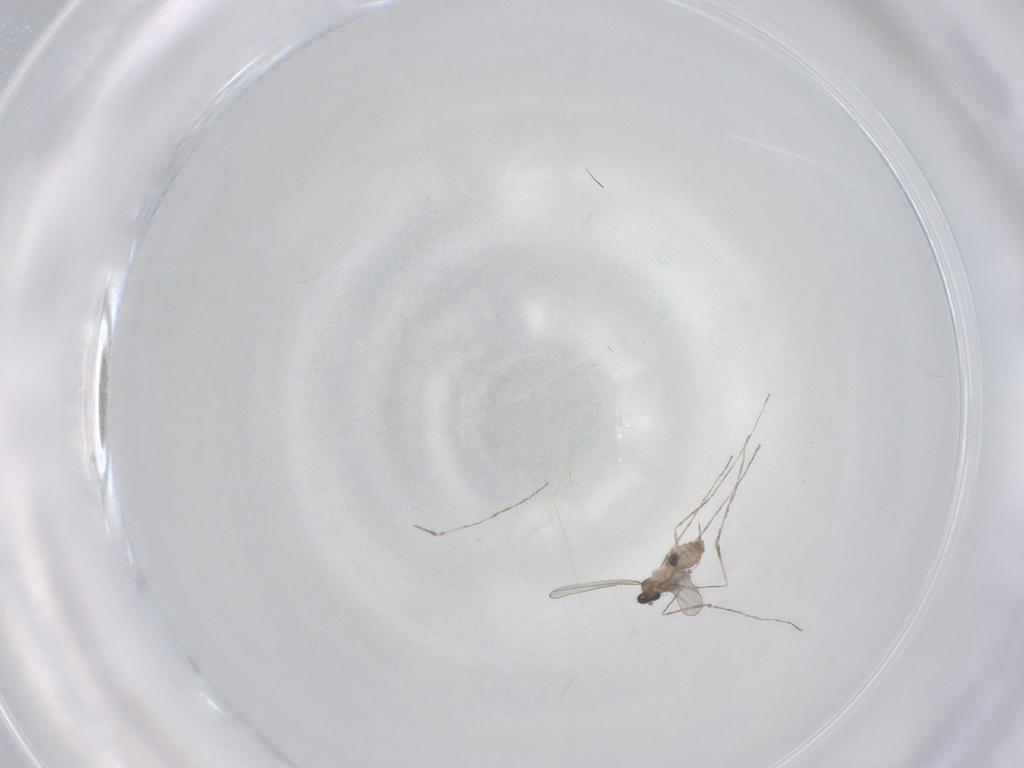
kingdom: Animalia
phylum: Arthropoda
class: Insecta
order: Diptera
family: Cecidomyiidae
